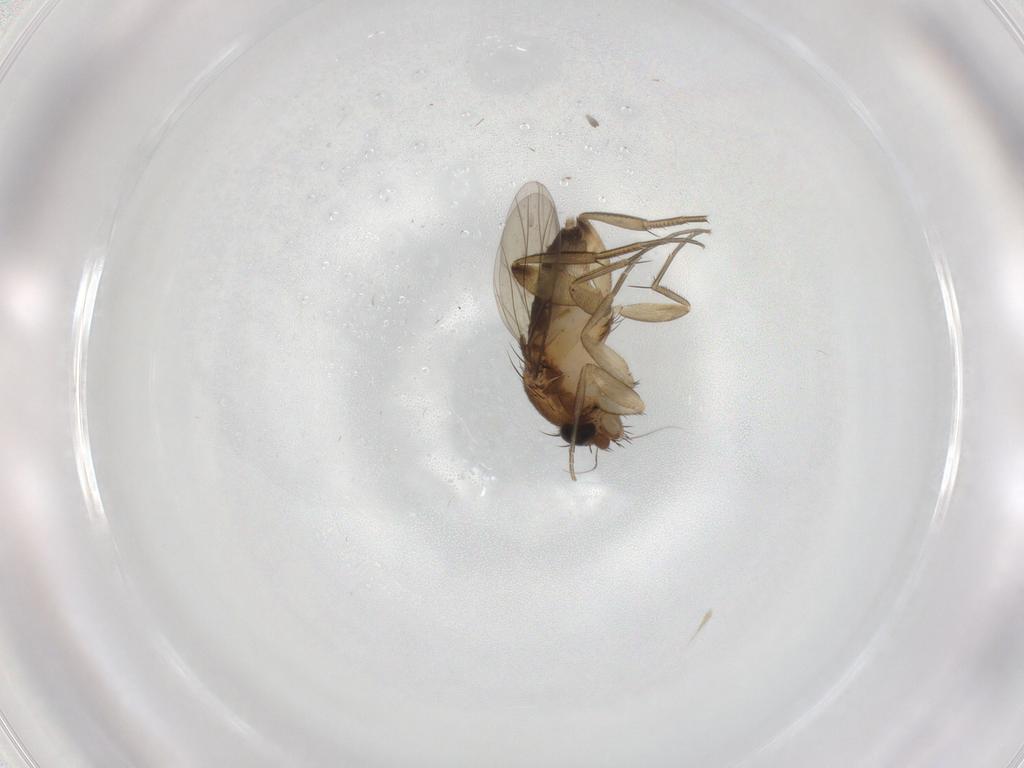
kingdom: Animalia
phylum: Arthropoda
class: Insecta
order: Diptera
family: Phoridae
